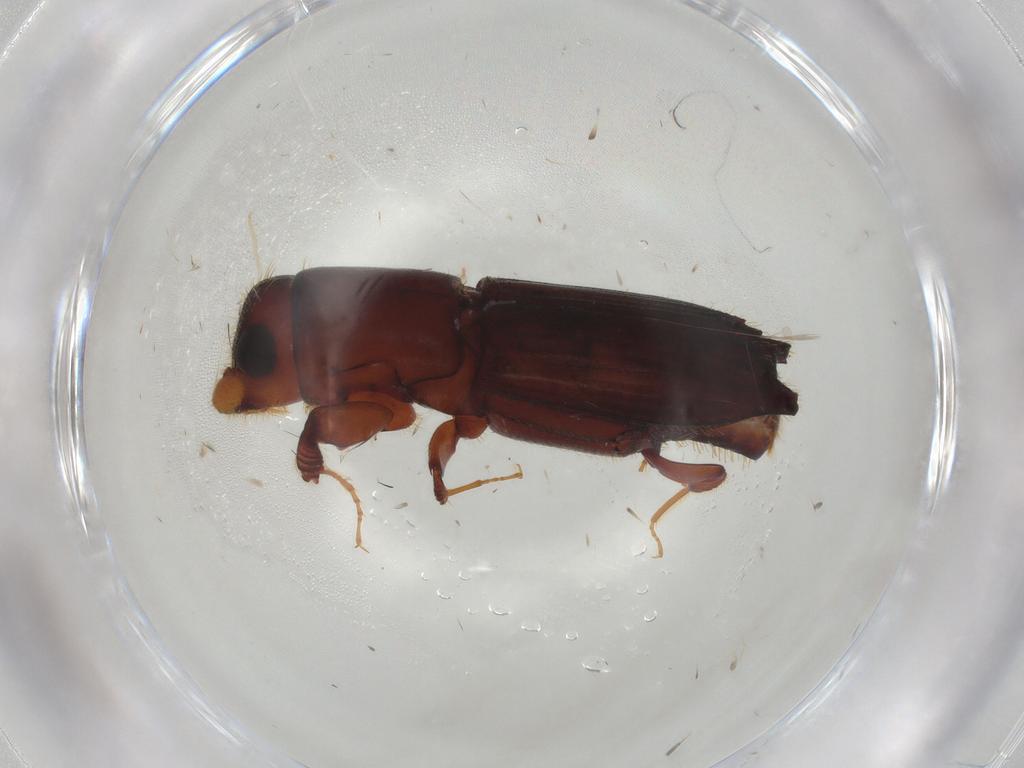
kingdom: Animalia
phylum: Arthropoda
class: Insecta
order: Coleoptera
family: Curculionidae
